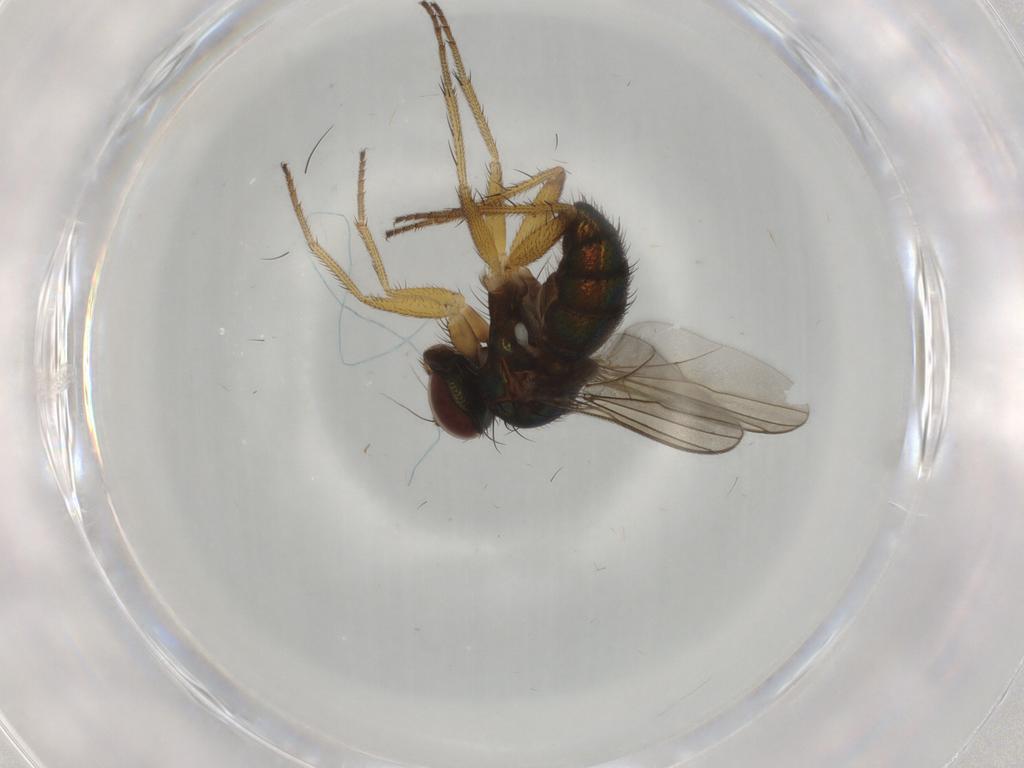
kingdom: Animalia
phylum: Arthropoda
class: Insecta
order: Diptera
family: Dolichopodidae
